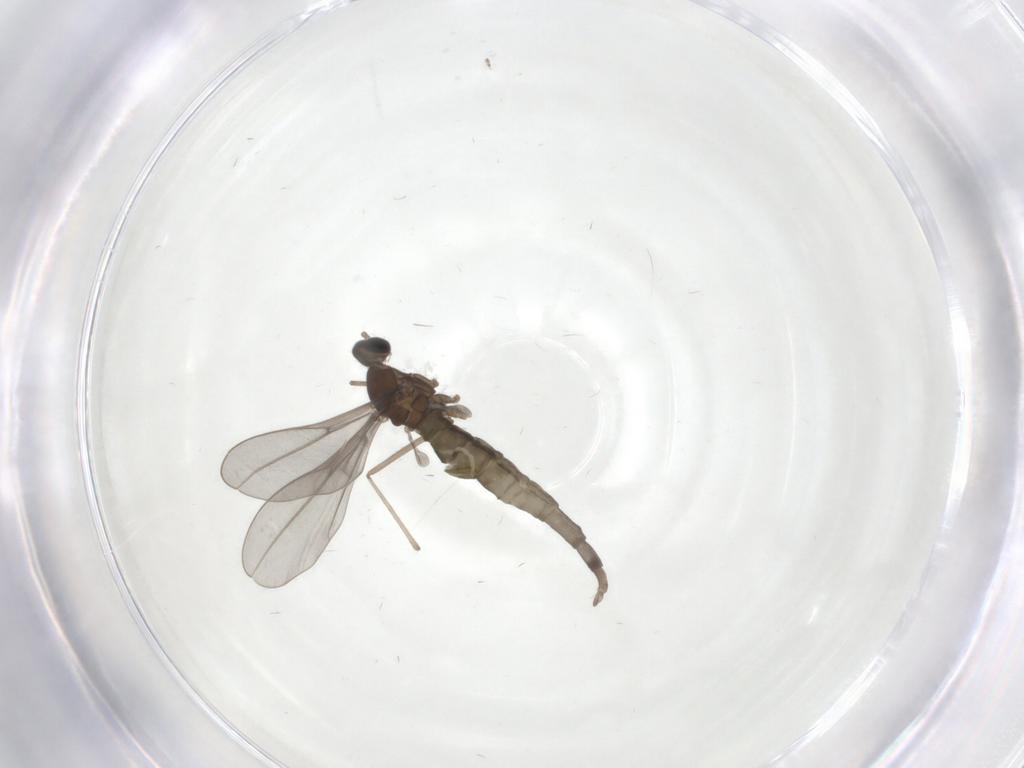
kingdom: Animalia
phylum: Arthropoda
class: Insecta
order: Diptera
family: Cecidomyiidae
